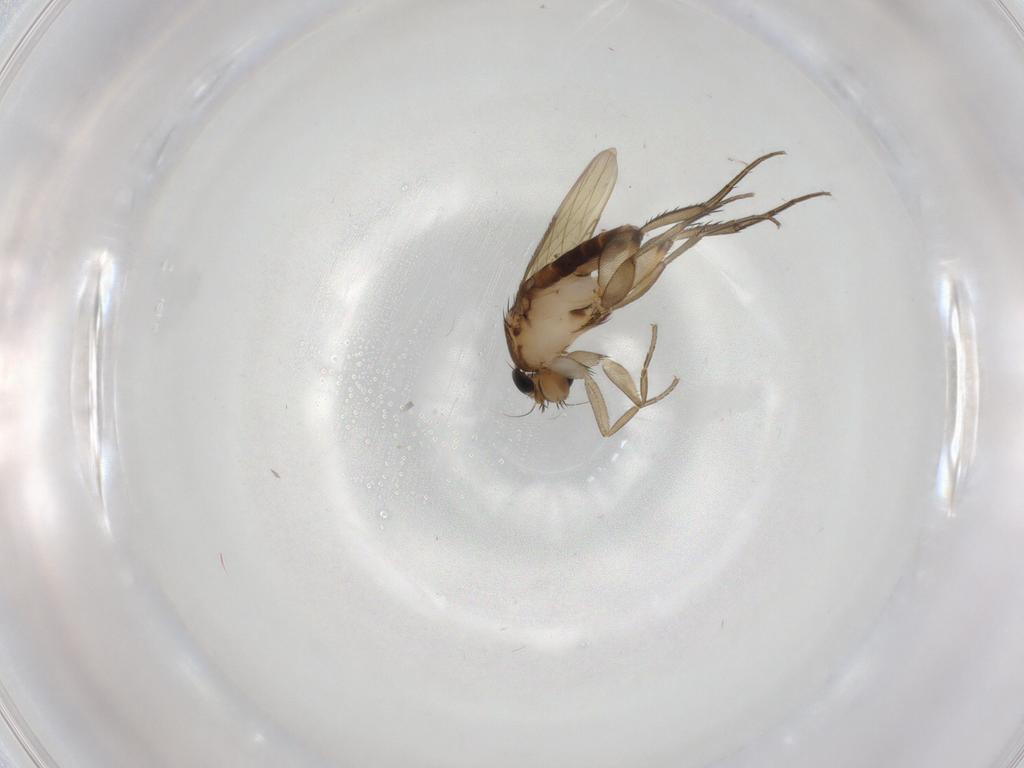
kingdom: Animalia
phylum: Arthropoda
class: Insecta
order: Diptera
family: Phoridae
